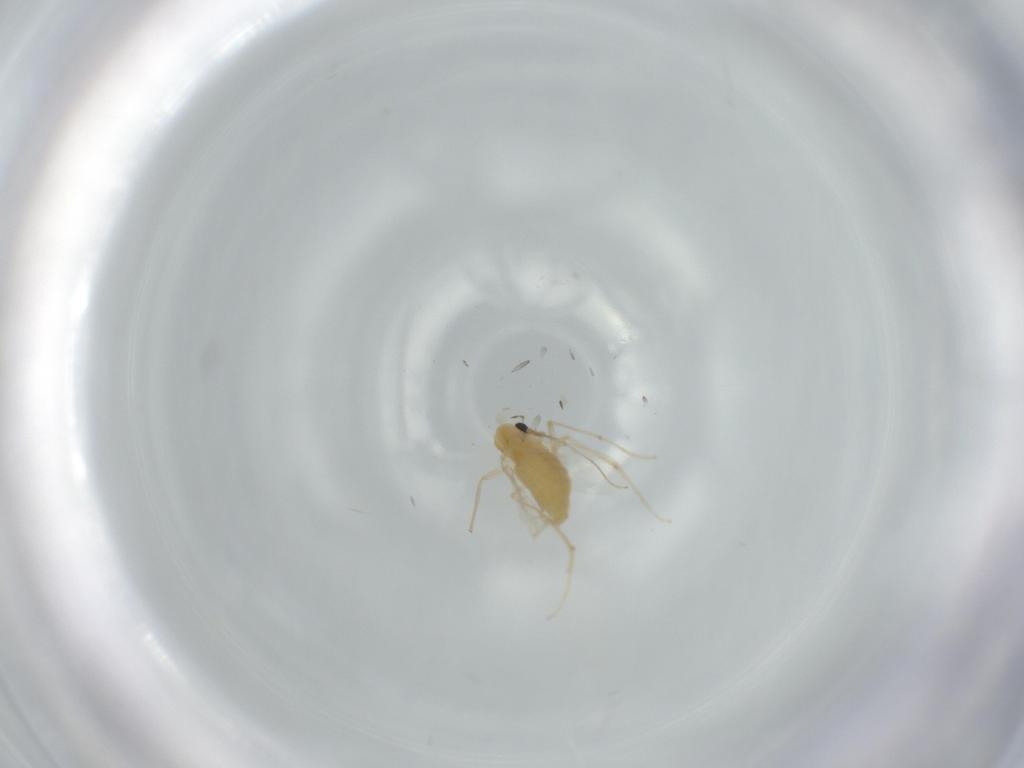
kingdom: Animalia
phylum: Arthropoda
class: Insecta
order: Diptera
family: Chironomidae
